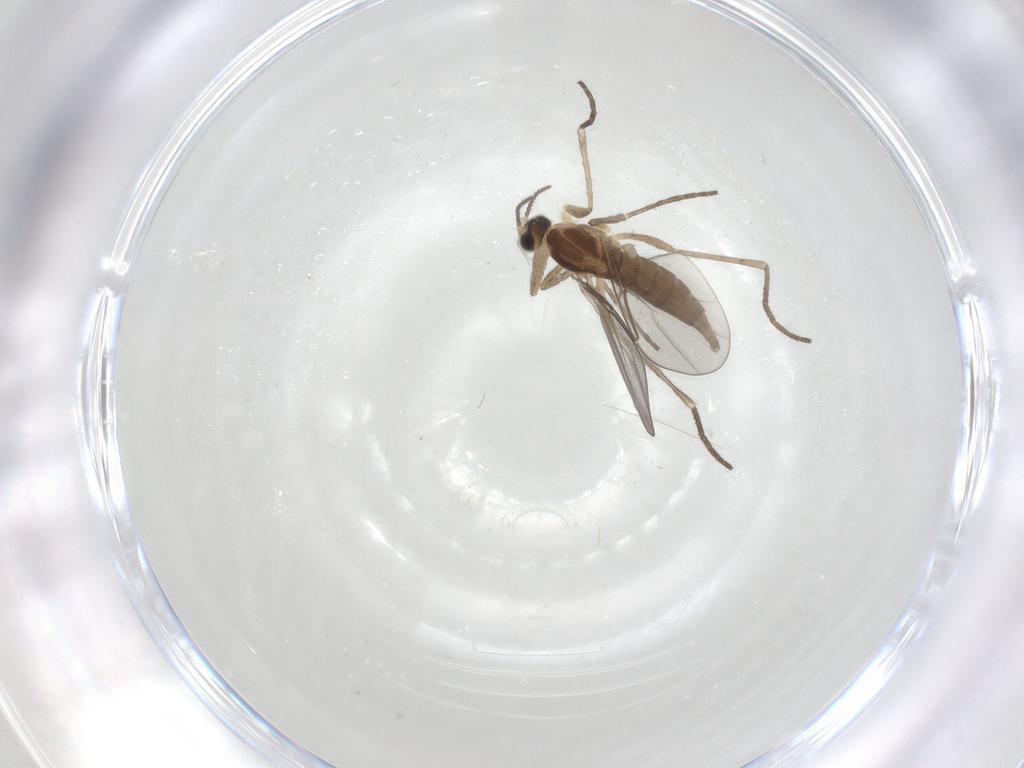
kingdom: Animalia
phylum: Arthropoda
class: Insecta
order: Diptera
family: Cecidomyiidae
